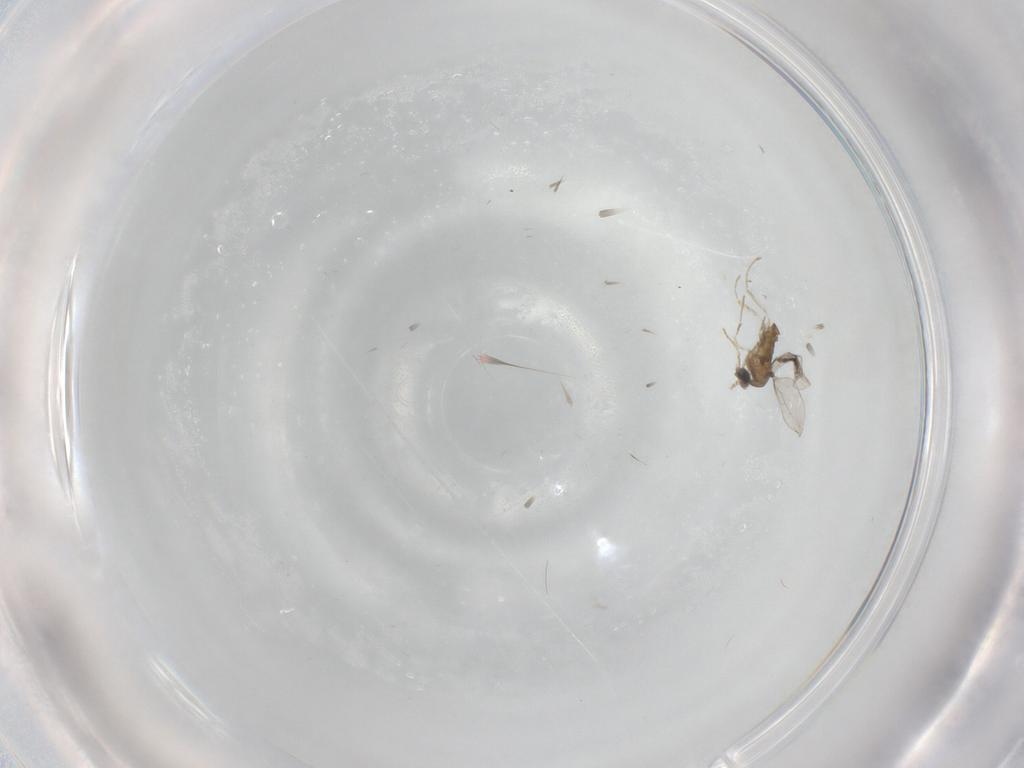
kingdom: Animalia
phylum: Arthropoda
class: Insecta
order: Diptera
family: Cecidomyiidae
